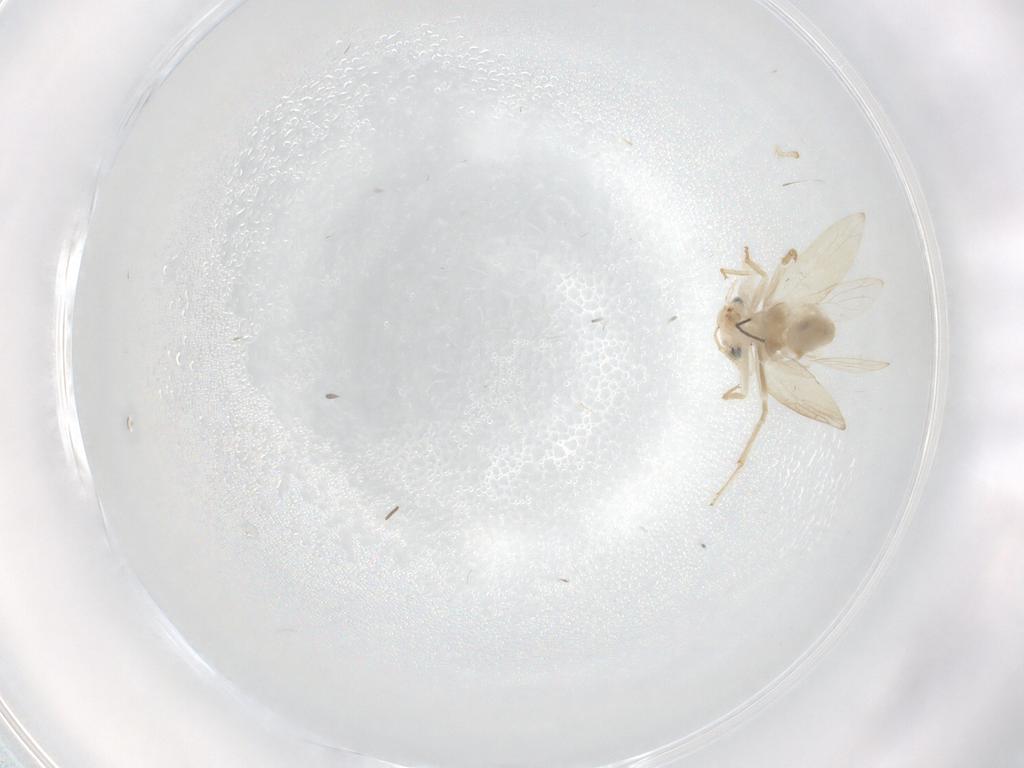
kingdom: Animalia
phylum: Arthropoda
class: Insecta
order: Psocodea
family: Lepidopsocidae
